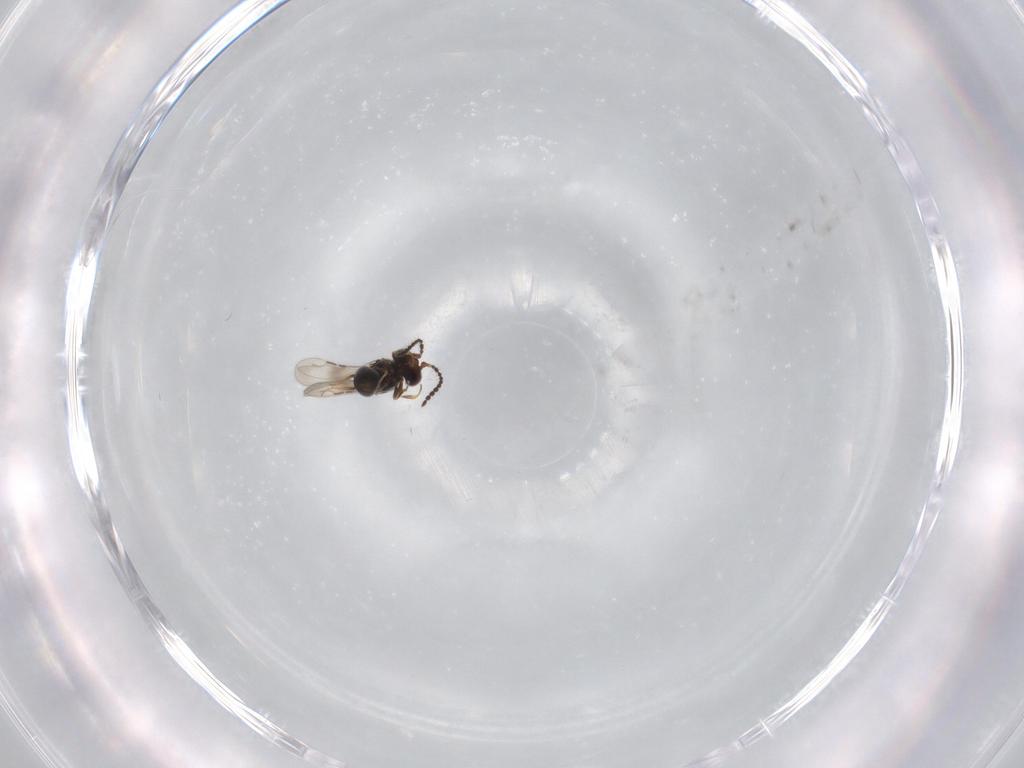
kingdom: Animalia
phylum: Arthropoda
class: Insecta
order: Hymenoptera
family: Ceraphronidae
